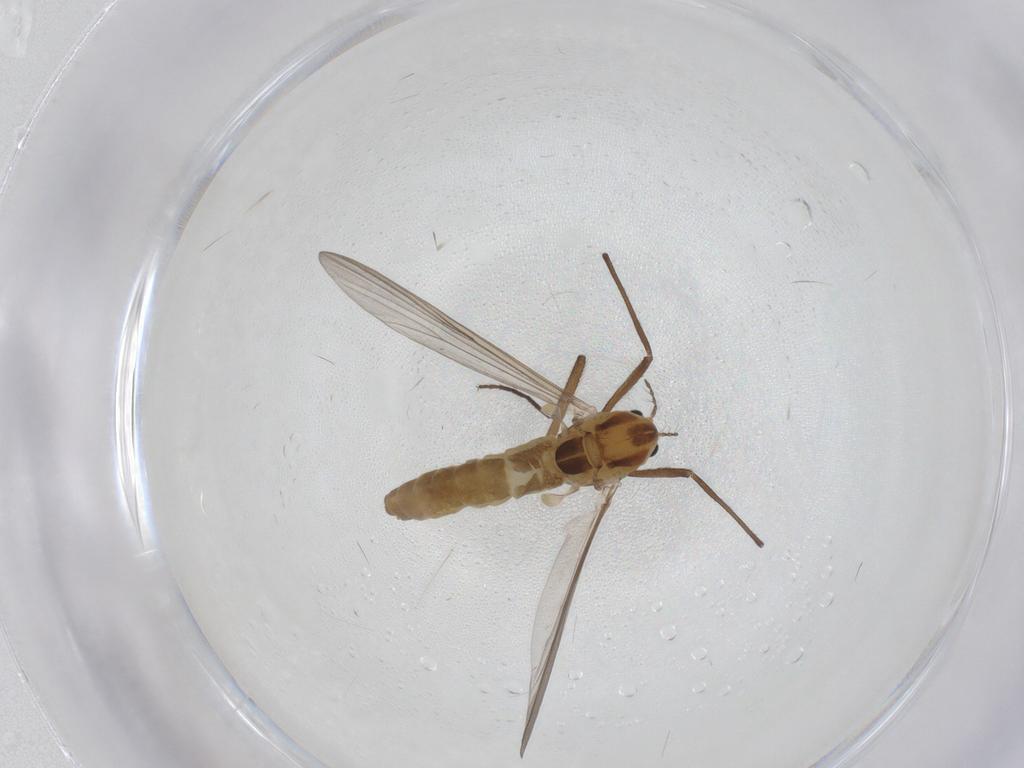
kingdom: Animalia
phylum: Arthropoda
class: Insecta
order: Diptera
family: Chironomidae
